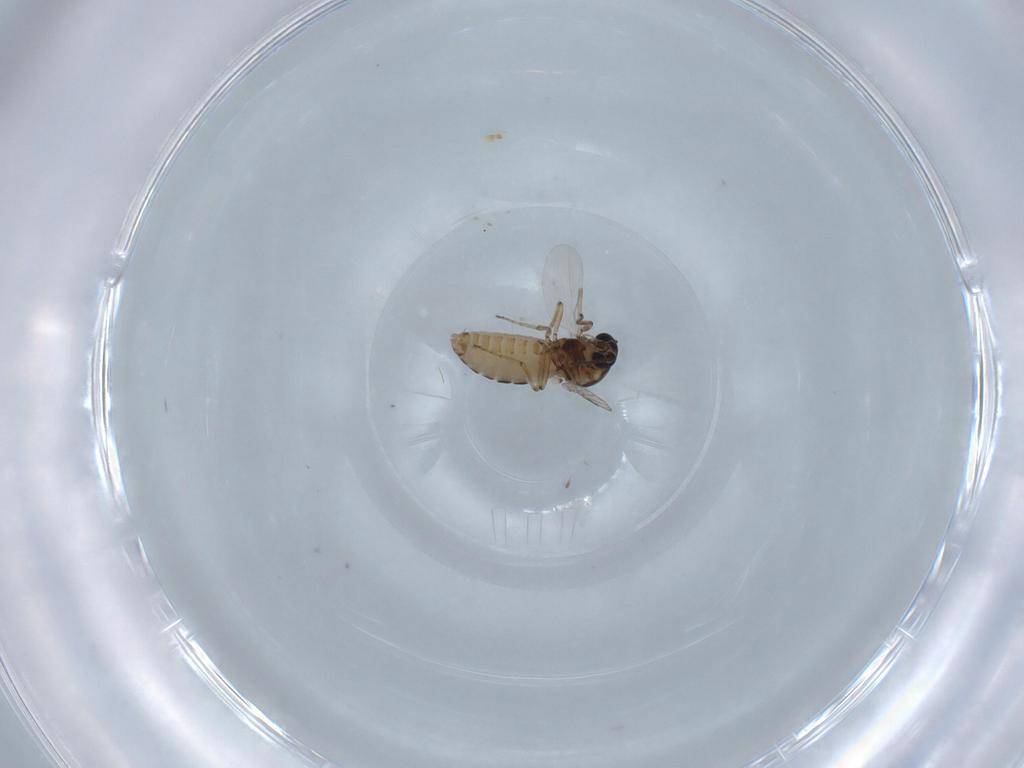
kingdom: Animalia
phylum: Arthropoda
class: Insecta
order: Diptera
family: Ceratopogonidae
